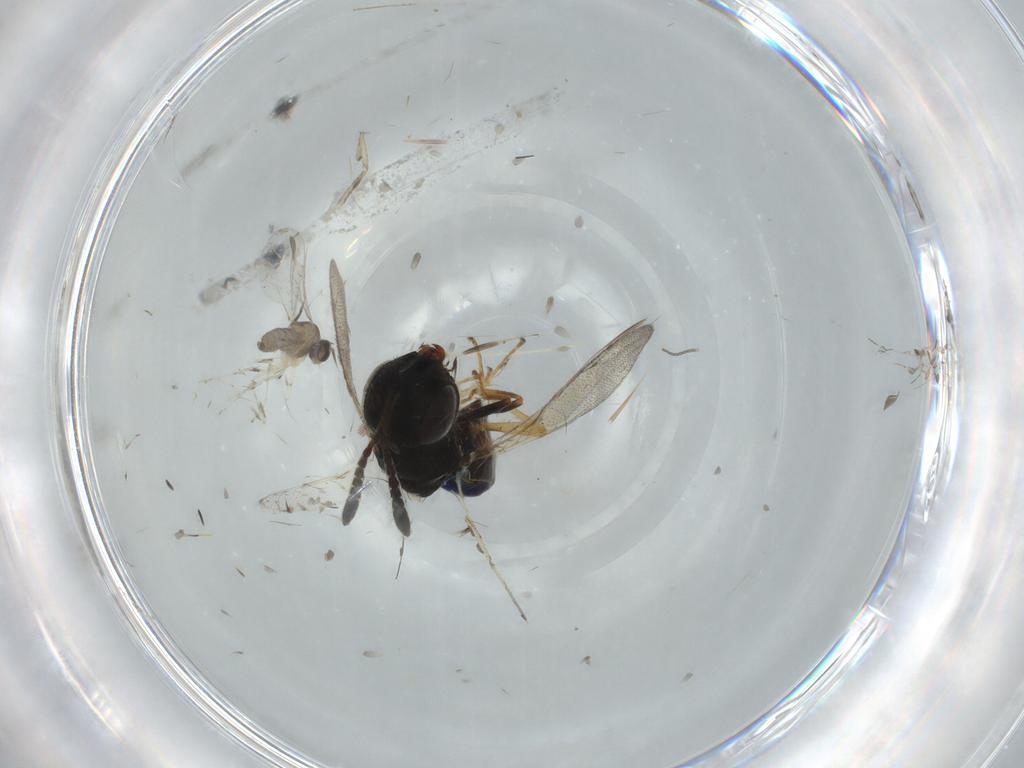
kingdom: Animalia
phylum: Arthropoda
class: Insecta
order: Diptera
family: Cecidomyiidae
